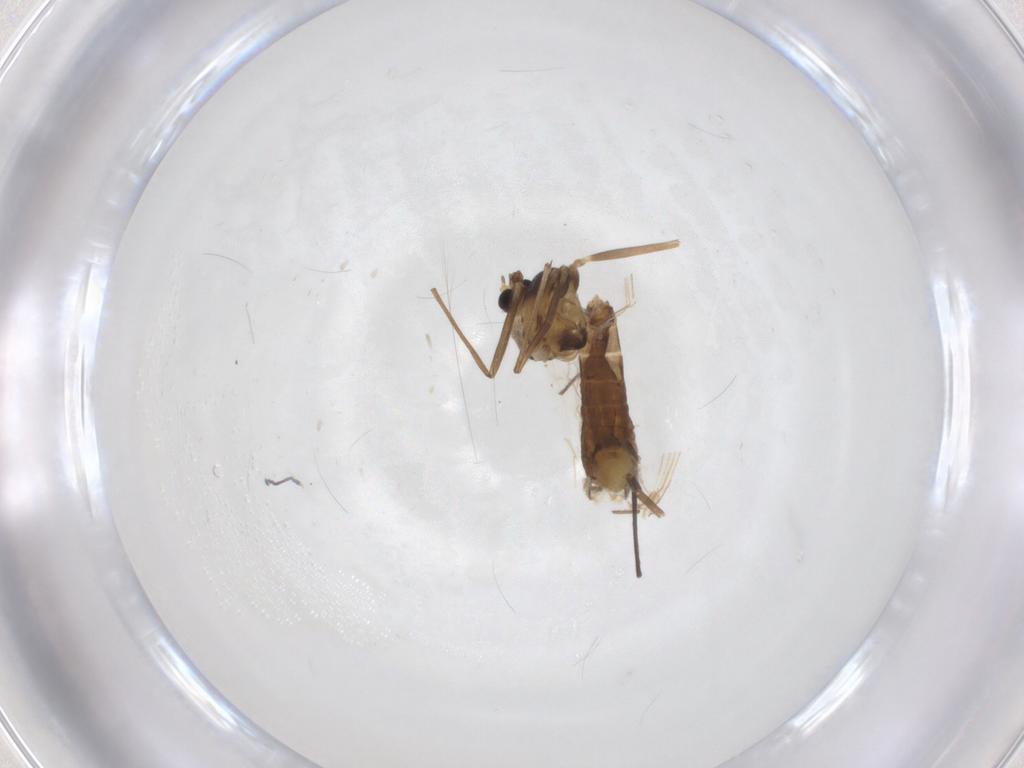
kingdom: Animalia
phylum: Arthropoda
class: Insecta
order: Diptera
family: Chironomidae
